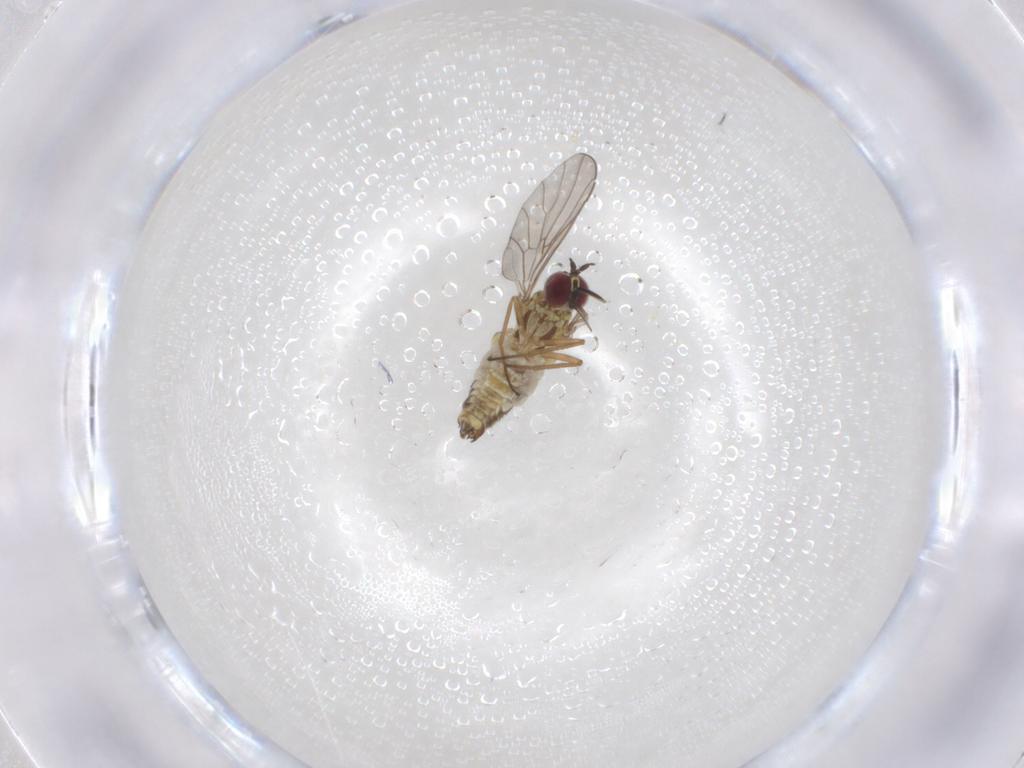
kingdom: Animalia
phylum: Arthropoda
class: Insecta
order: Diptera
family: Bombyliidae
